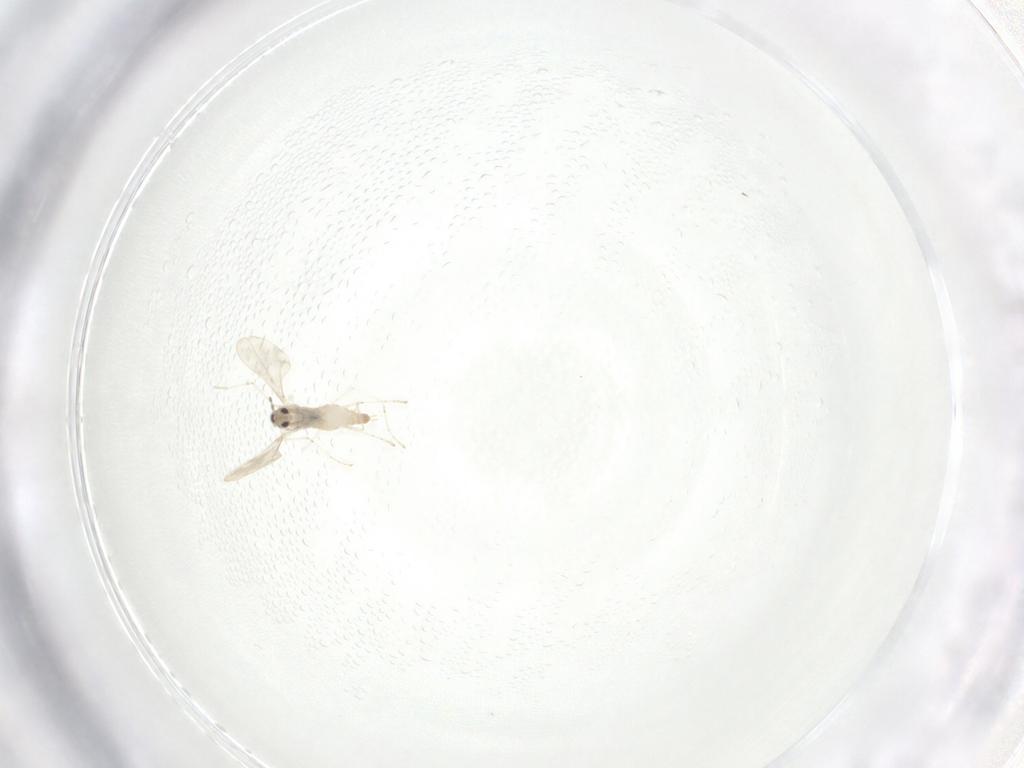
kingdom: Animalia
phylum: Arthropoda
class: Insecta
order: Diptera
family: Cecidomyiidae
